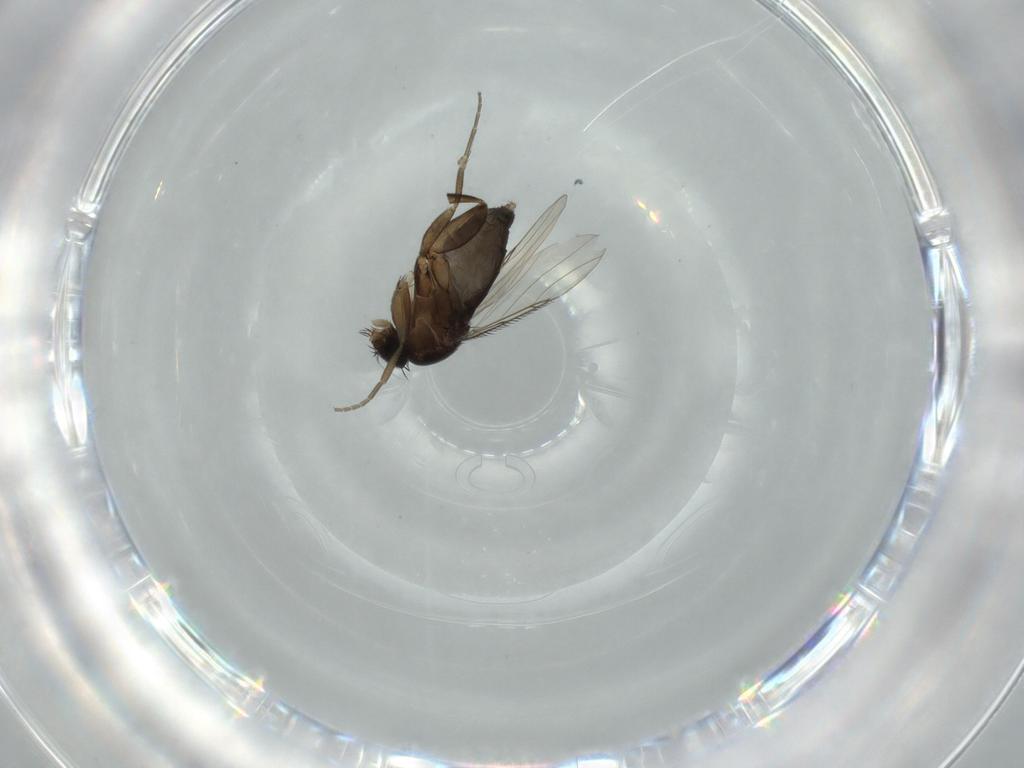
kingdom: Animalia
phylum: Arthropoda
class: Insecta
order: Diptera
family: Phoridae
